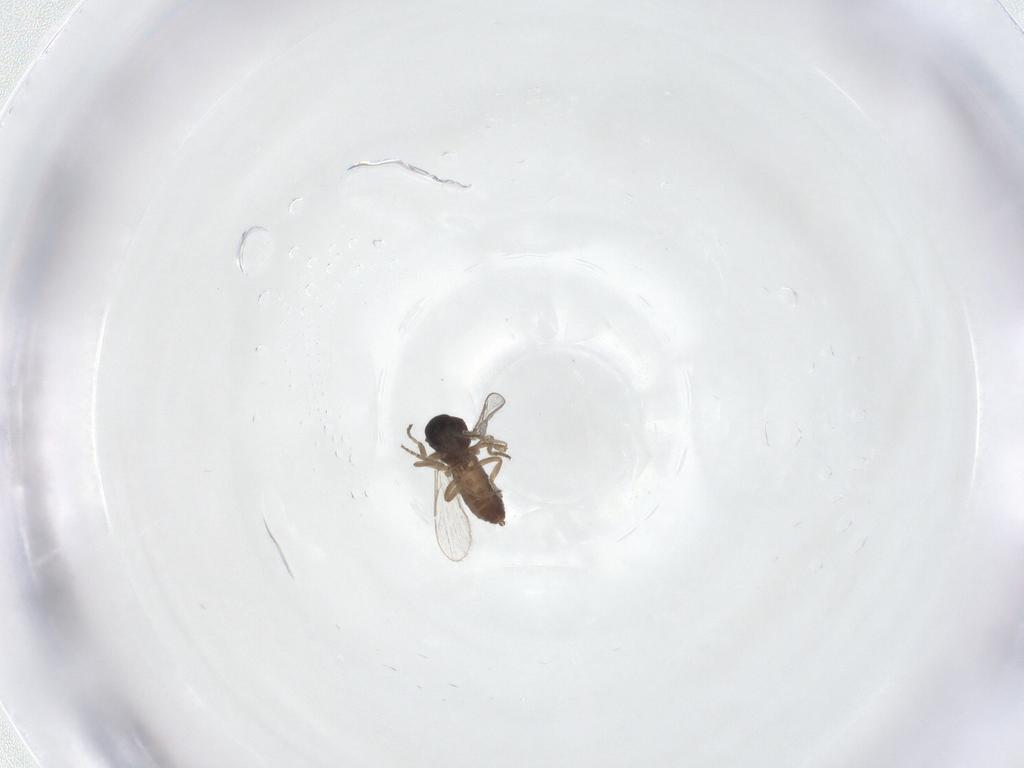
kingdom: Animalia
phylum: Arthropoda
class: Insecta
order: Diptera
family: Ceratopogonidae
